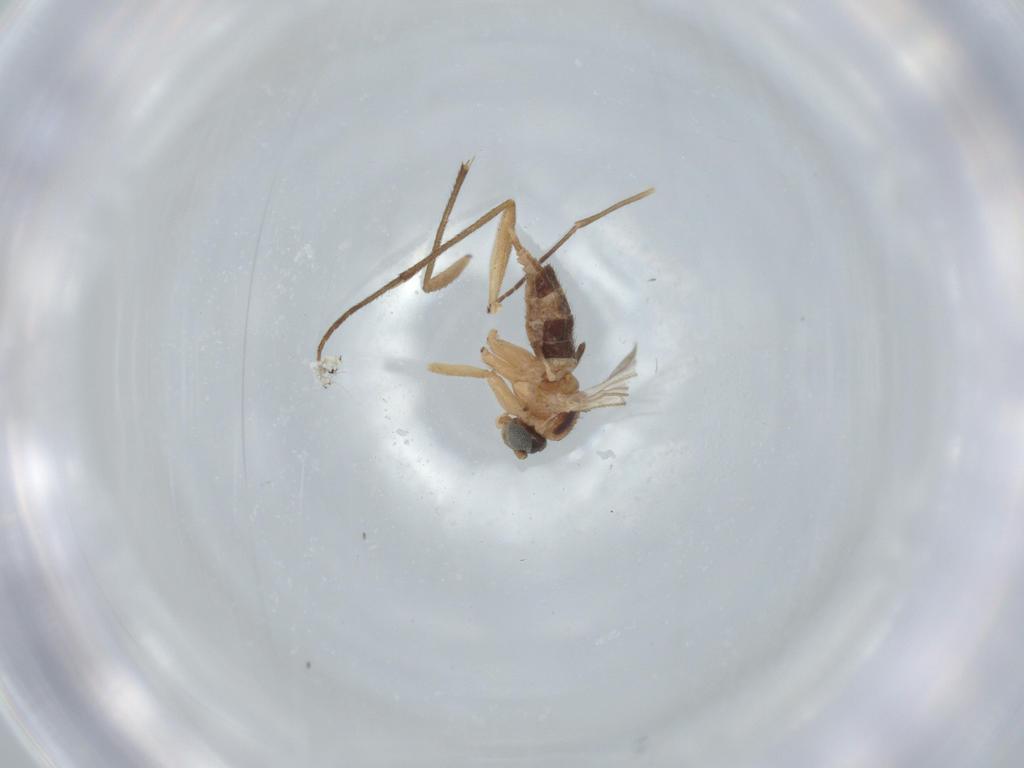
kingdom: Animalia
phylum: Arthropoda
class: Insecta
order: Diptera
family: Chironomidae
